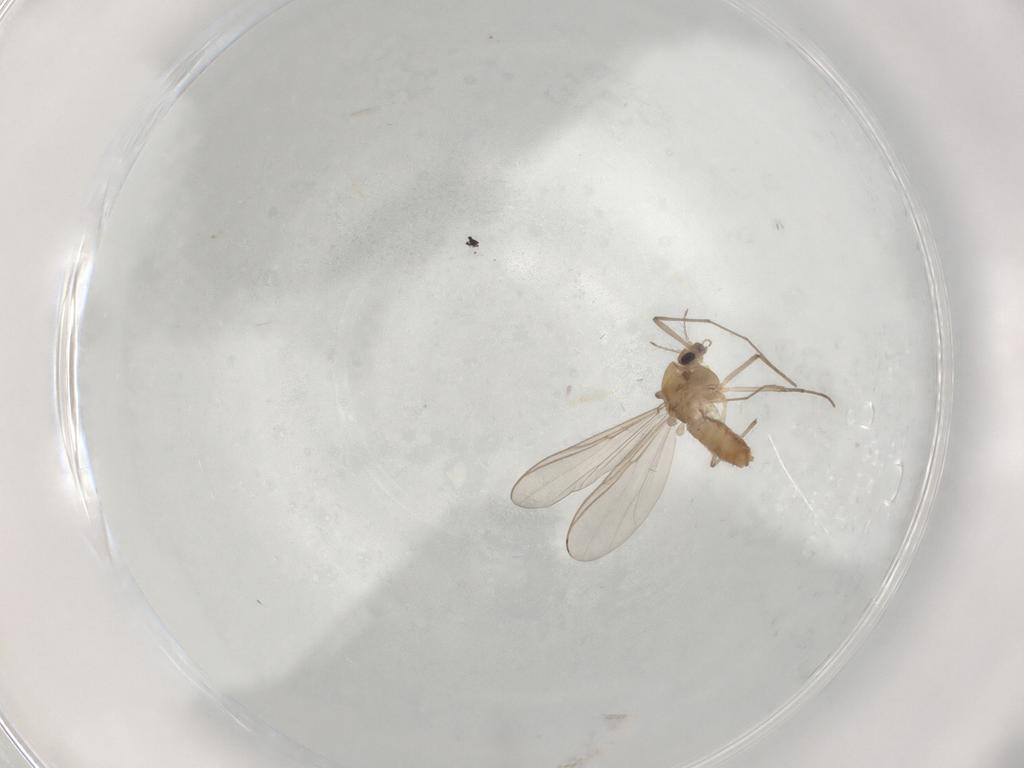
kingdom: Animalia
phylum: Arthropoda
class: Insecta
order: Diptera
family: Chironomidae
